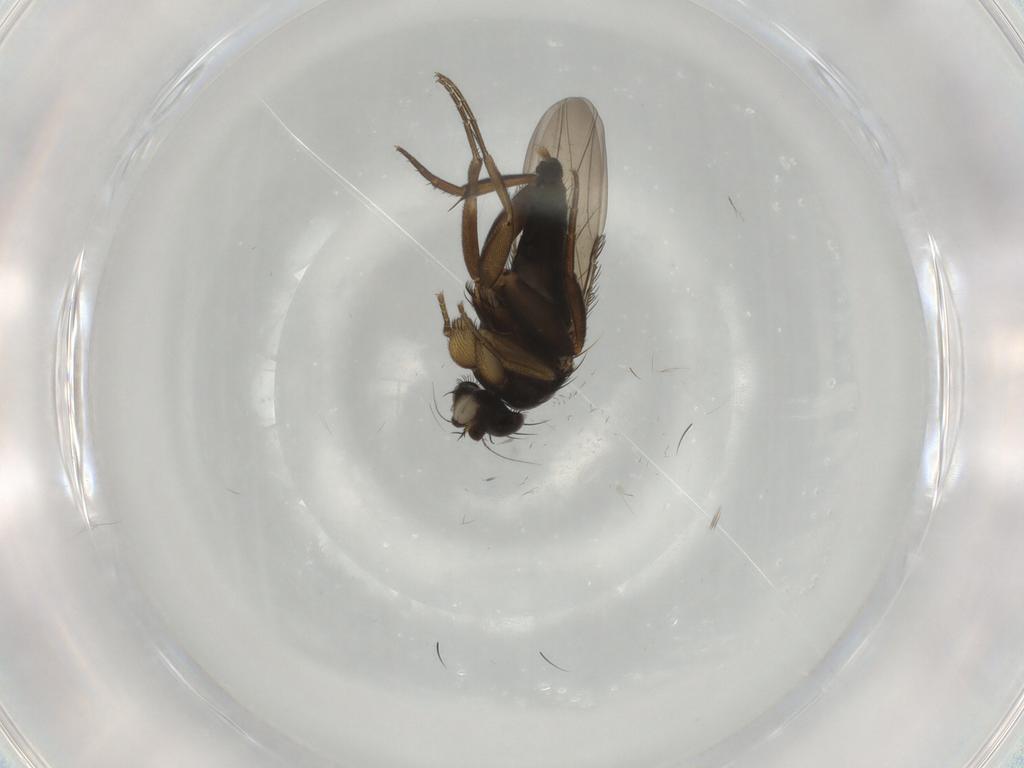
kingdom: Animalia
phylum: Arthropoda
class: Insecta
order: Diptera
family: Phoridae
